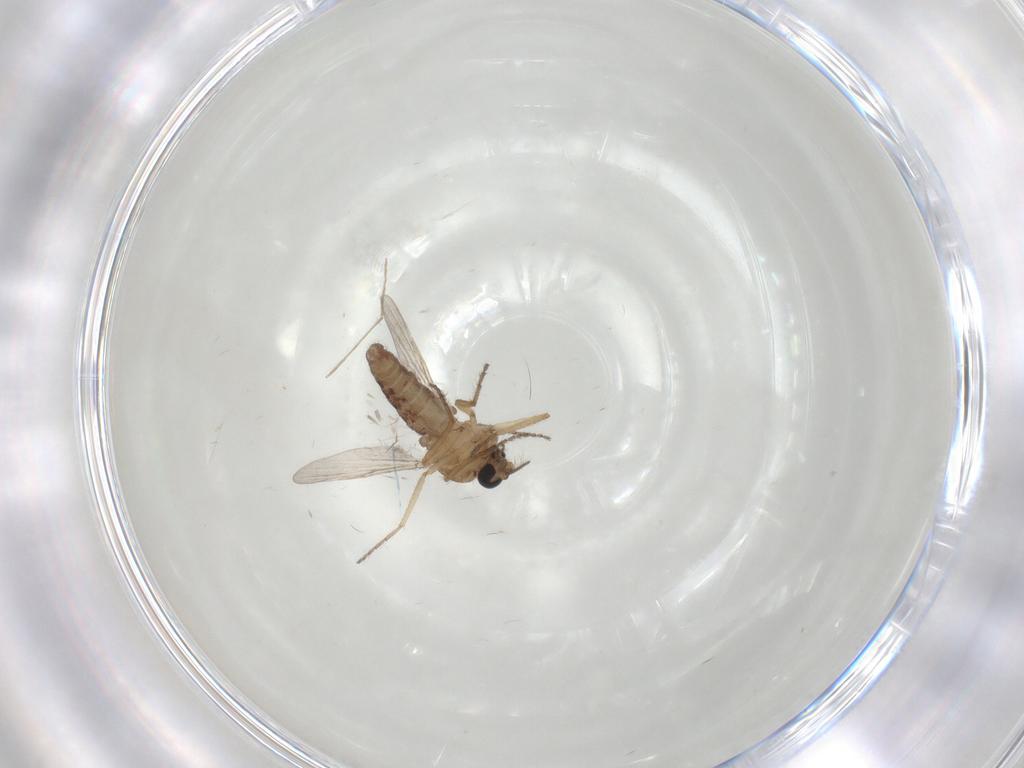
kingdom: Animalia
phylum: Arthropoda
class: Insecta
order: Diptera
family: Ceratopogonidae
